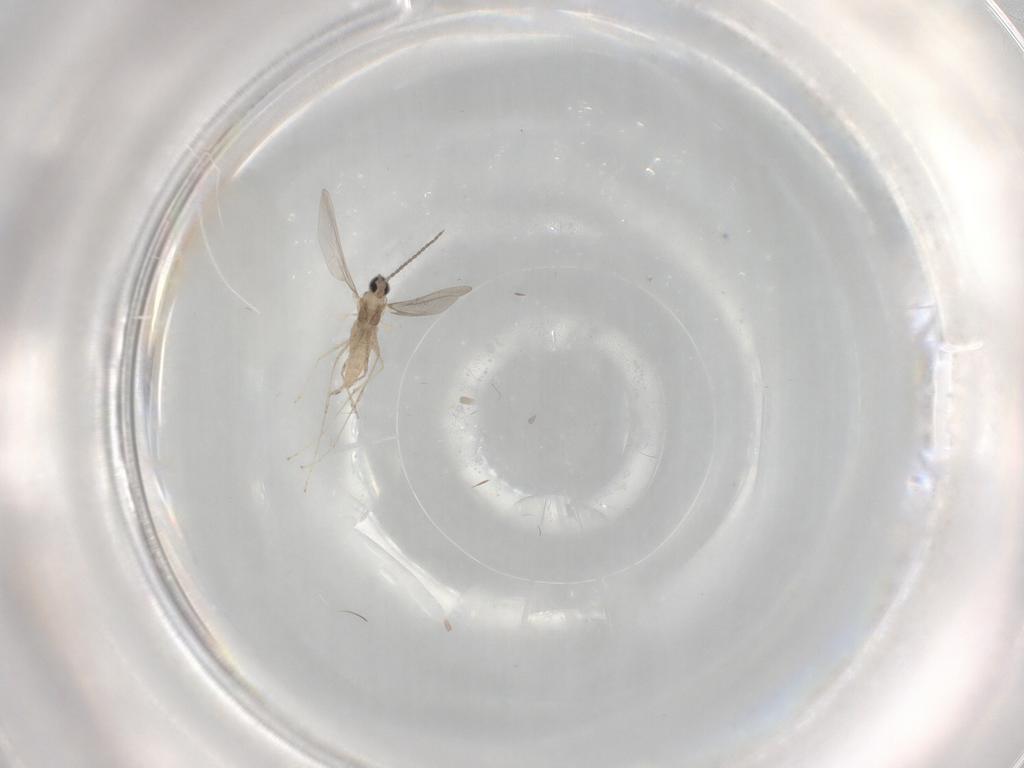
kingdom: Animalia
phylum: Arthropoda
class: Insecta
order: Diptera
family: Cecidomyiidae
